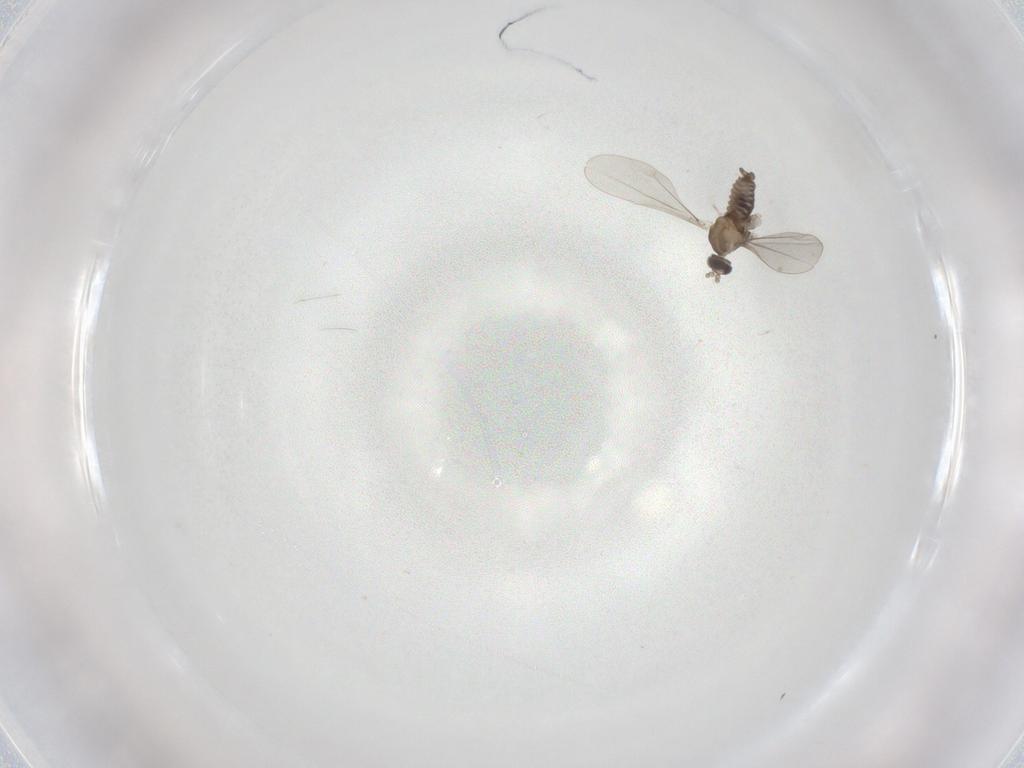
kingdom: Animalia
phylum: Arthropoda
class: Insecta
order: Diptera
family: Cecidomyiidae
